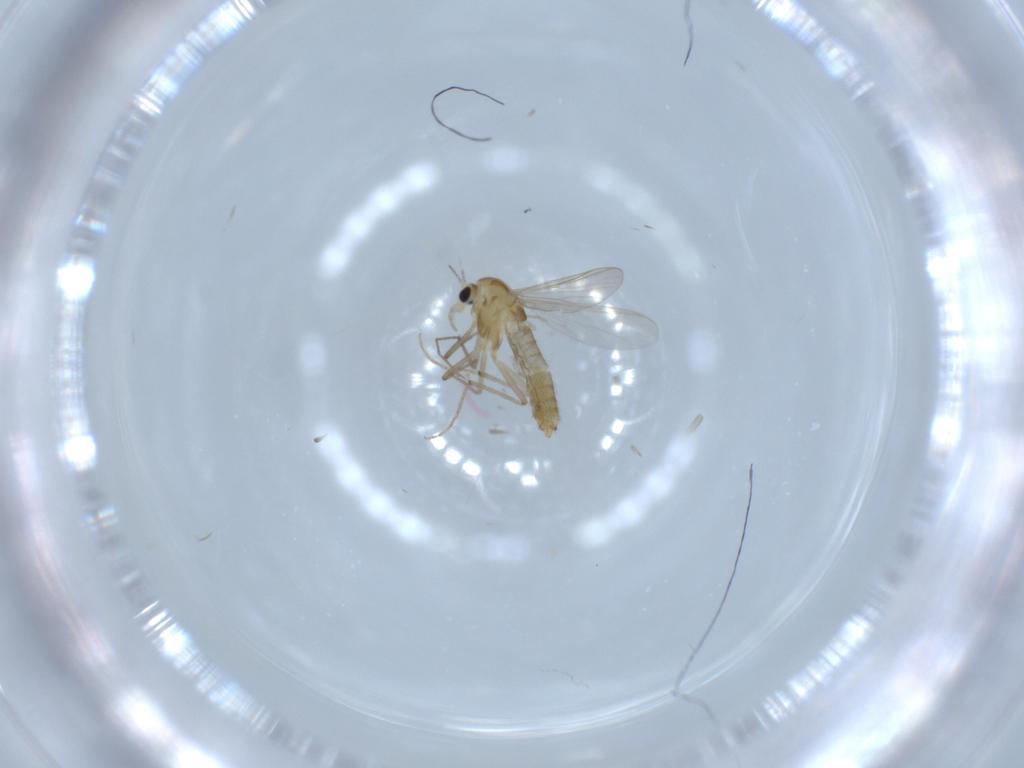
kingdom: Animalia
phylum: Arthropoda
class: Insecta
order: Diptera
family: Chironomidae
